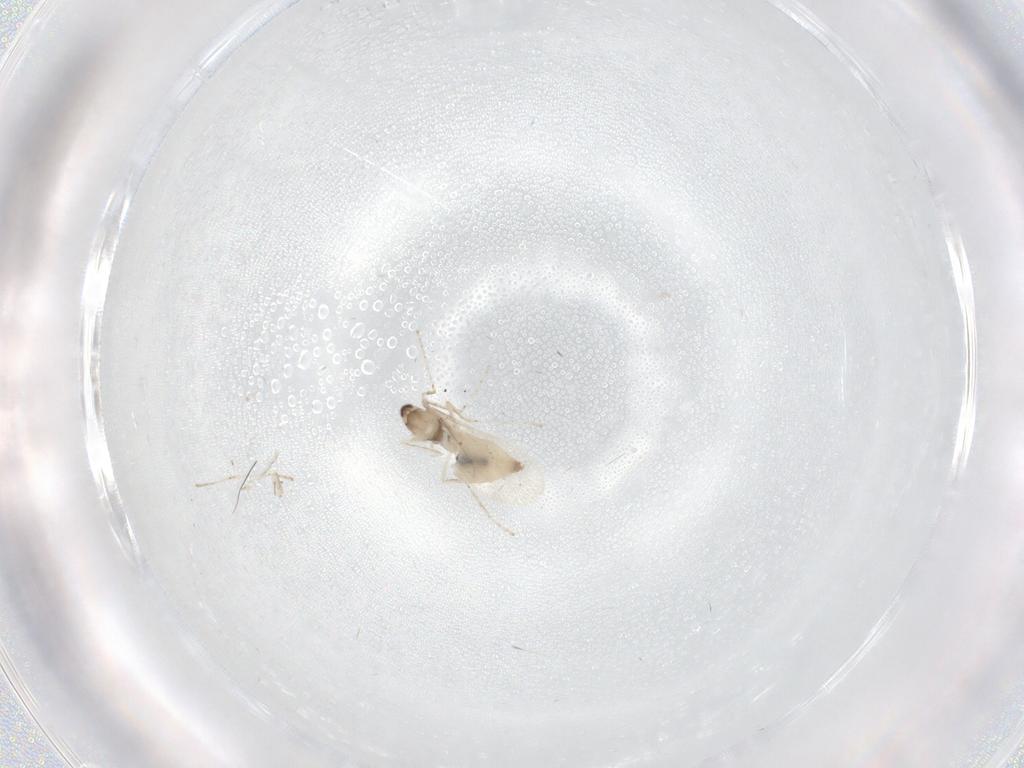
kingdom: Animalia
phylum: Arthropoda
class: Insecta
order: Diptera
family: Cecidomyiidae
